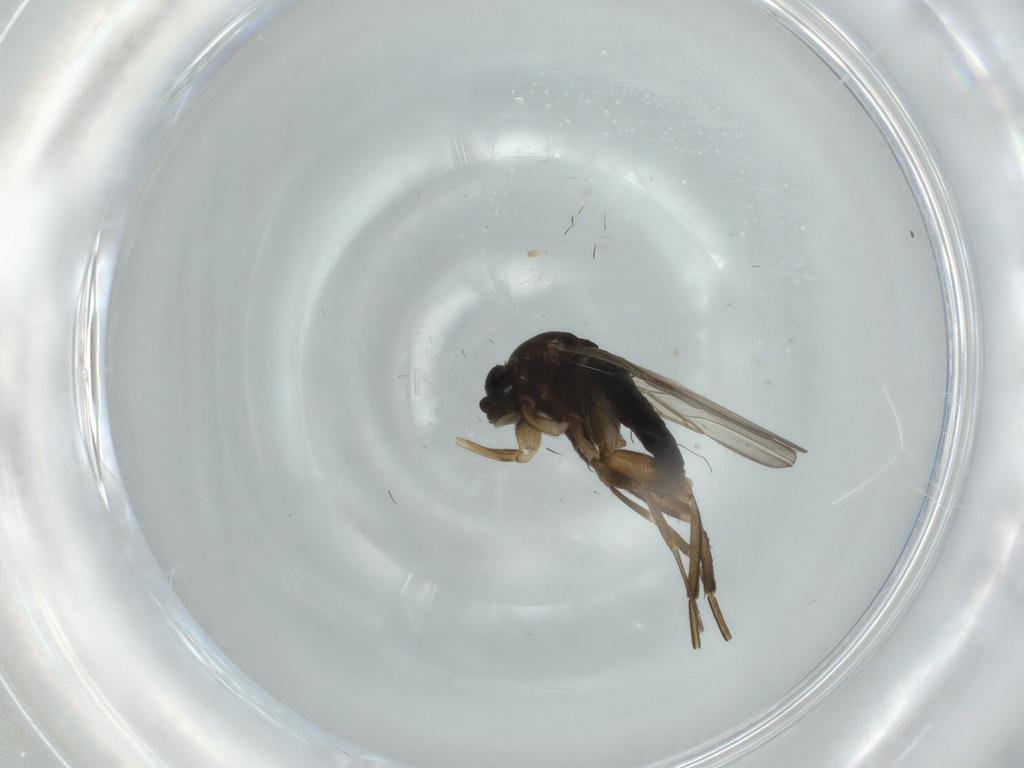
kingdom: Animalia
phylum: Arthropoda
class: Insecta
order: Diptera
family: Phoridae
